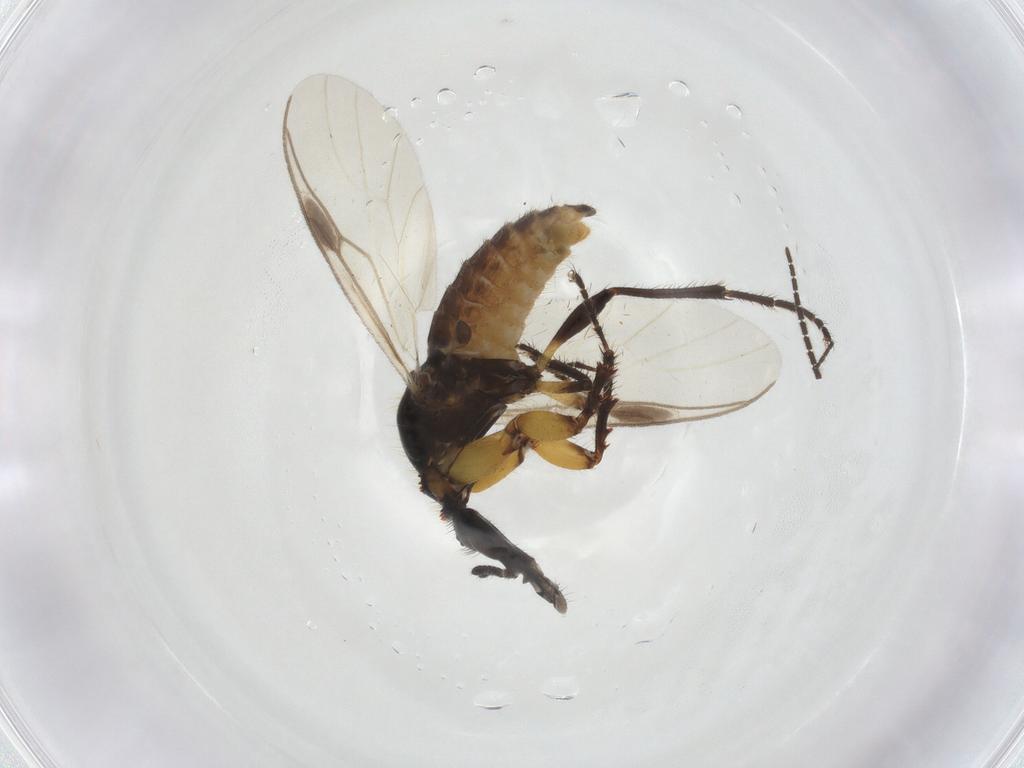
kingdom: Animalia
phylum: Arthropoda
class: Insecta
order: Diptera
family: Bibionidae
